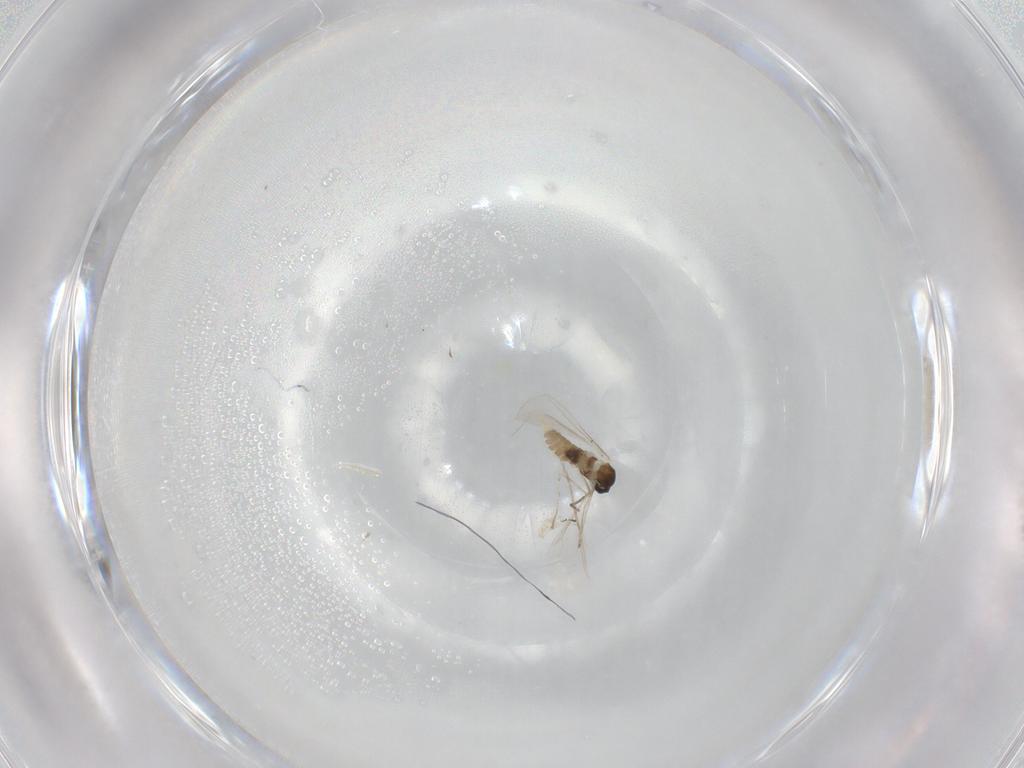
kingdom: Animalia
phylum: Arthropoda
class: Insecta
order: Diptera
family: Cecidomyiidae
